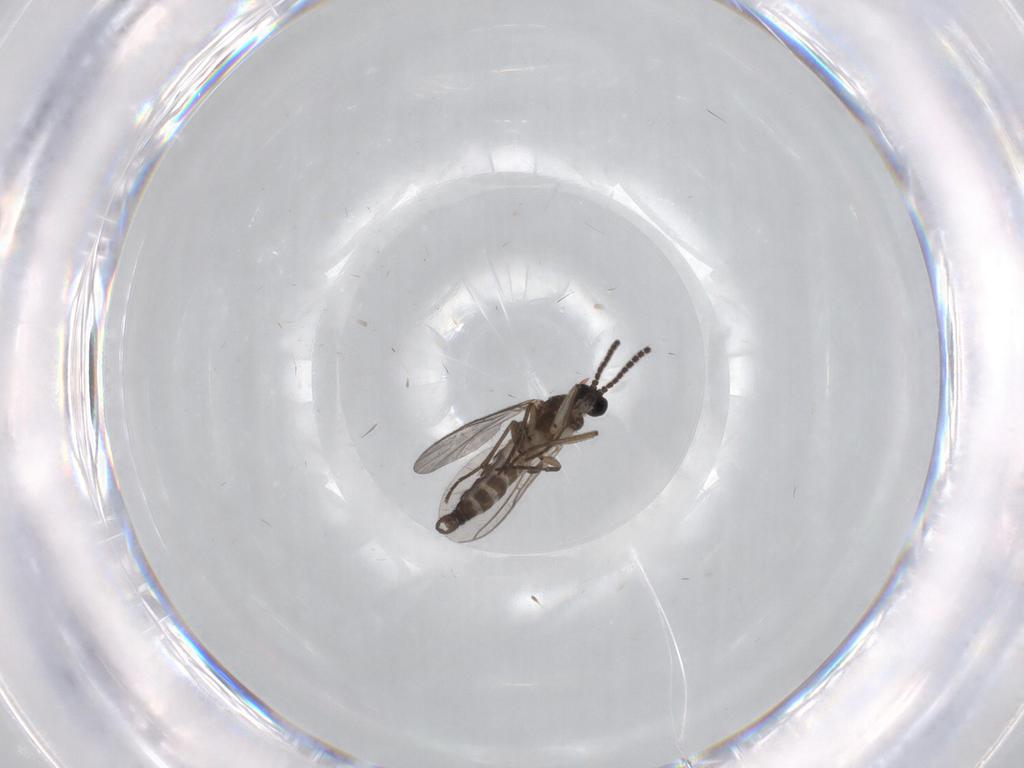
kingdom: Animalia
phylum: Arthropoda
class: Insecta
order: Diptera
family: Sciaridae
